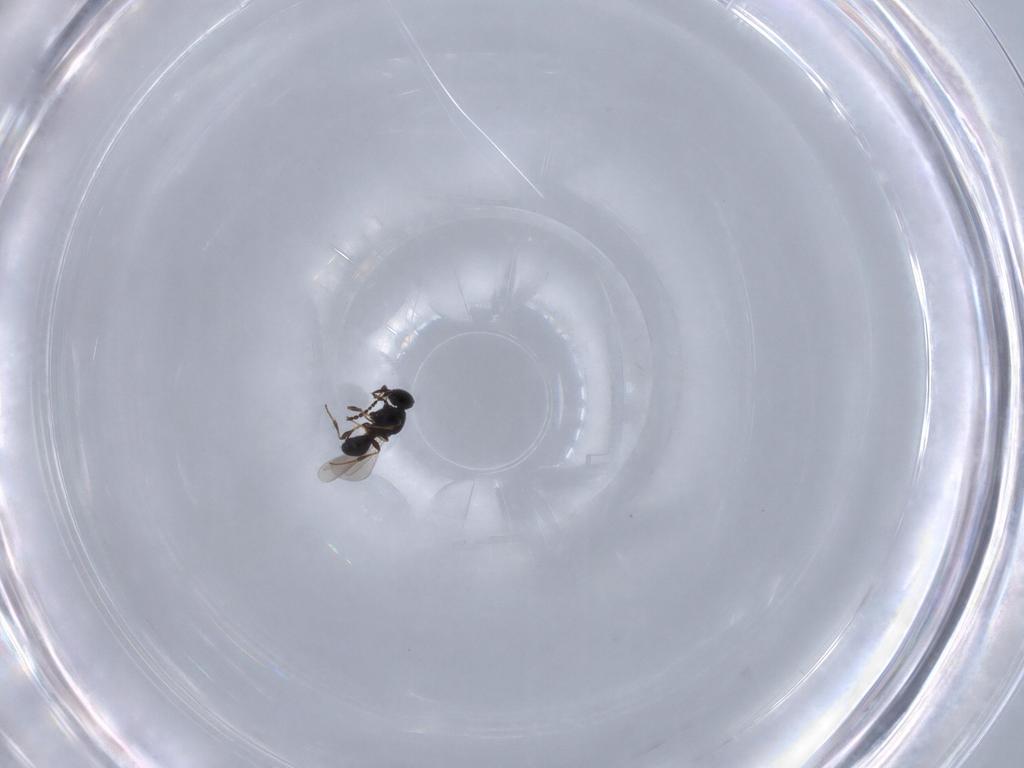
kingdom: Animalia
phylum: Arthropoda
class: Insecta
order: Hymenoptera
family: Platygastridae
